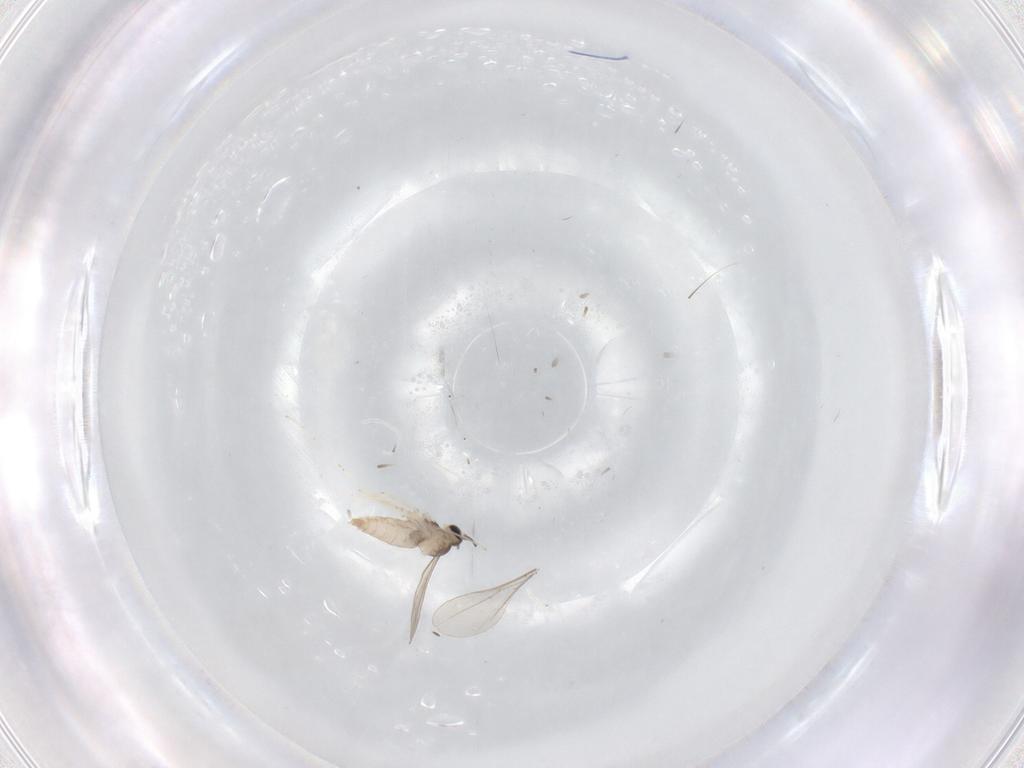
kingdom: Animalia
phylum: Arthropoda
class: Insecta
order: Diptera
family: Cecidomyiidae
